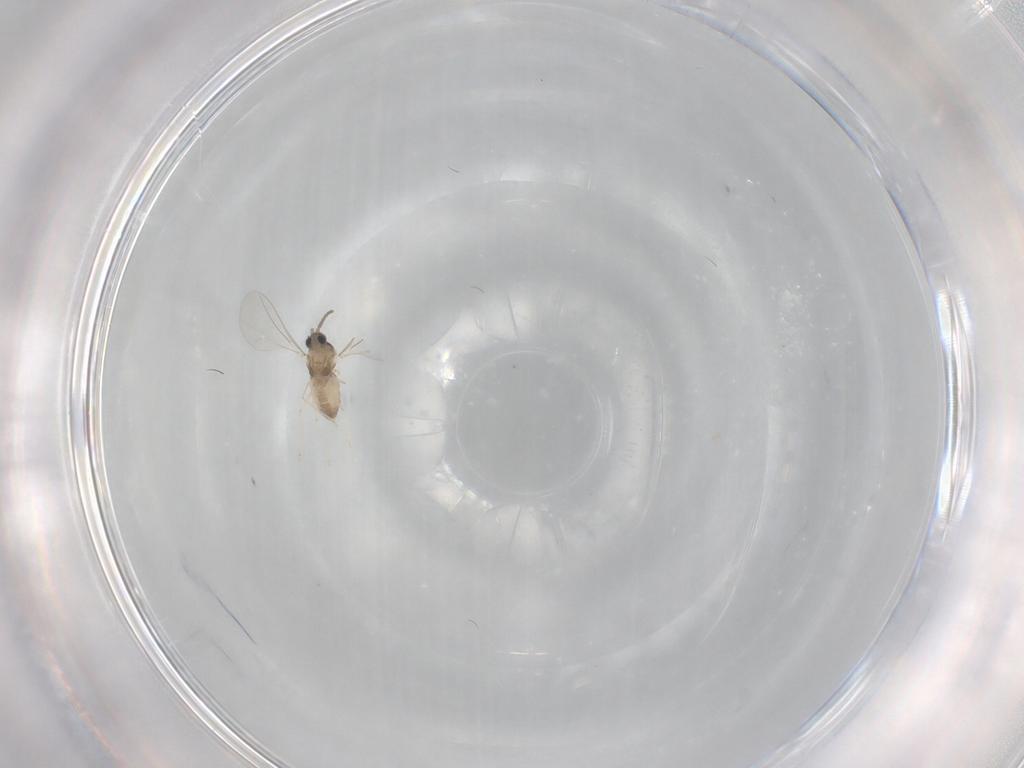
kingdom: Animalia
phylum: Arthropoda
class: Insecta
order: Diptera
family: Cecidomyiidae
